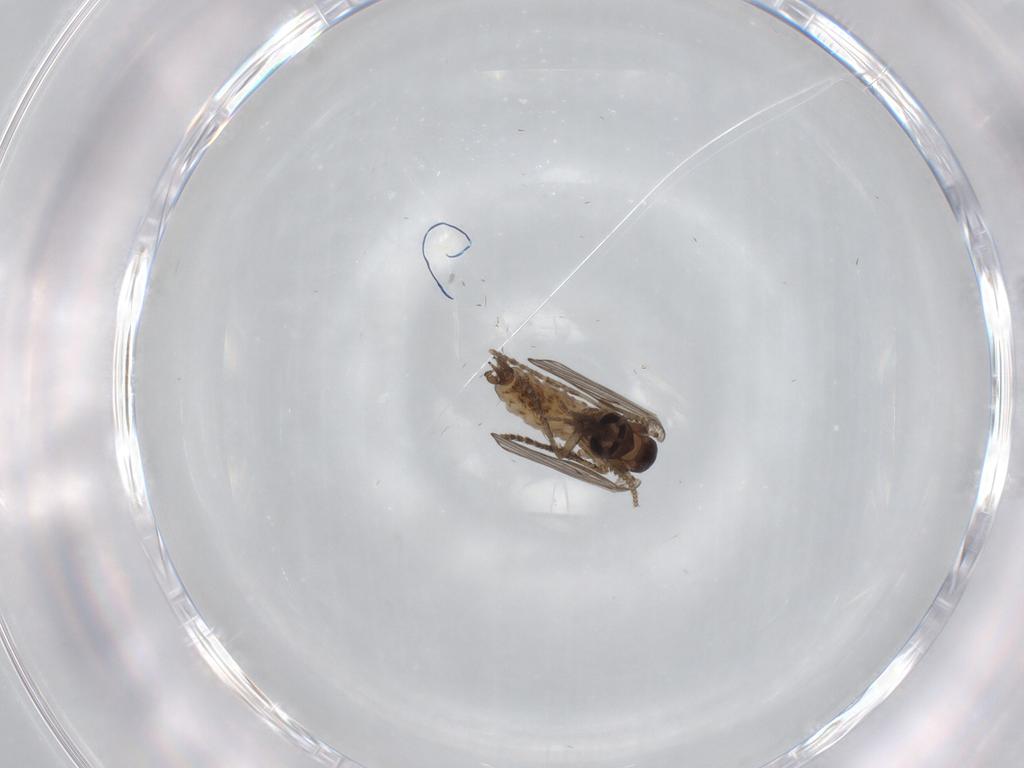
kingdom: Animalia
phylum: Arthropoda
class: Insecta
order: Diptera
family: Psychodidae
